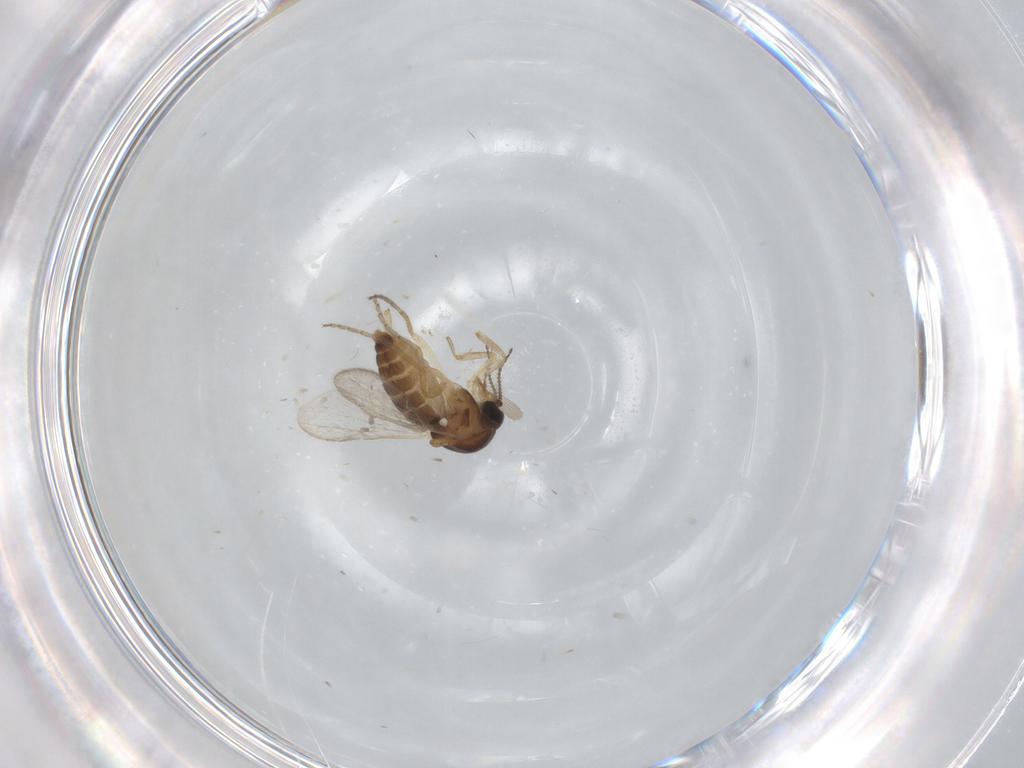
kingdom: Animalia
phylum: Arthropoda
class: Insecta
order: Diptera
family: Ceratopogonidae
